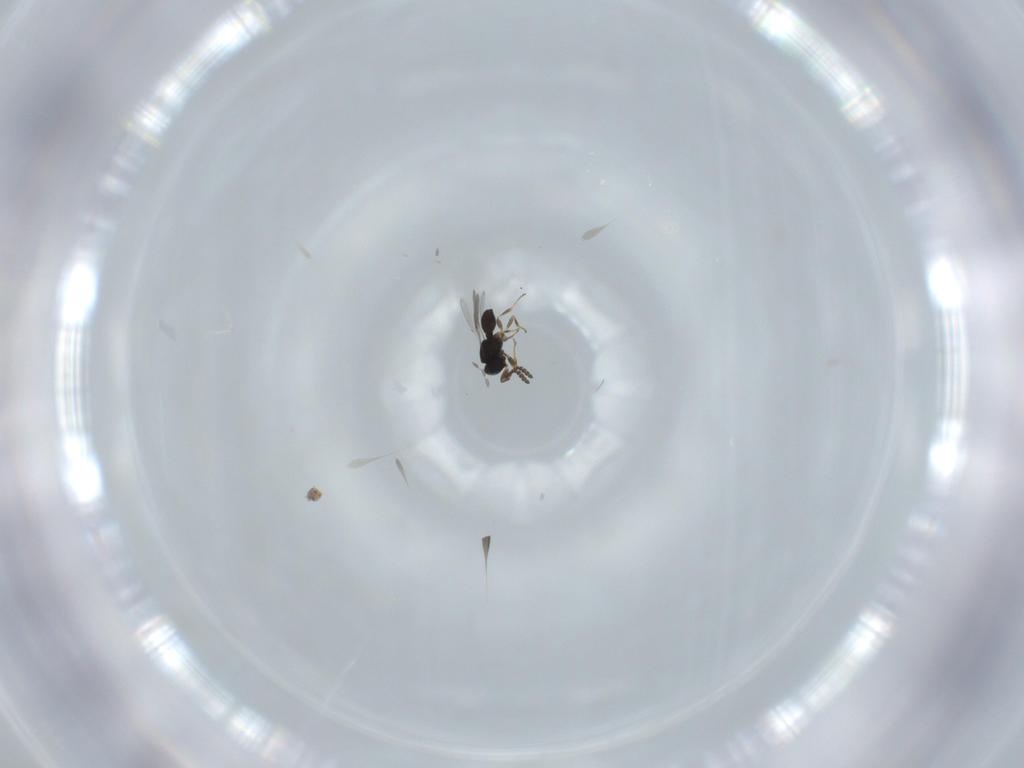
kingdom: Animalia
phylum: Arthropoda
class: Insecta
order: Hymenoptera
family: Scelionidae
